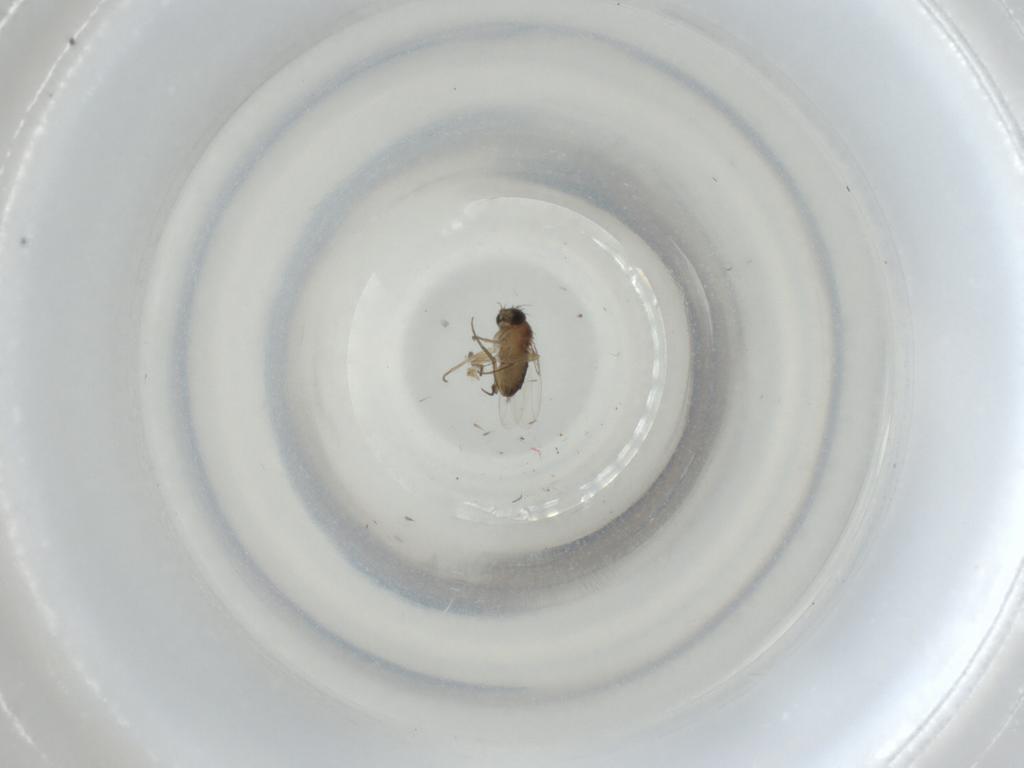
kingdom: Animalia
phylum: Arthropoda
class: Insecta
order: Diptera
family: Phoridae
